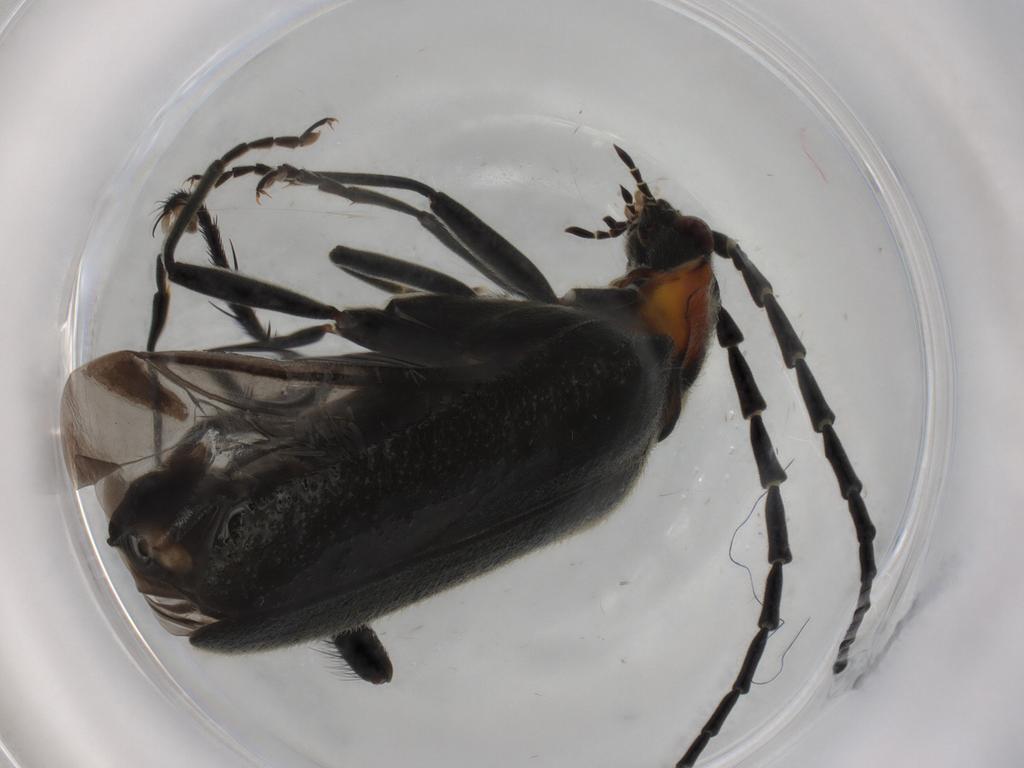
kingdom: Animalia
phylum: Arthropoda
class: Insecta
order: Coleoptera
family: Cantharidae
